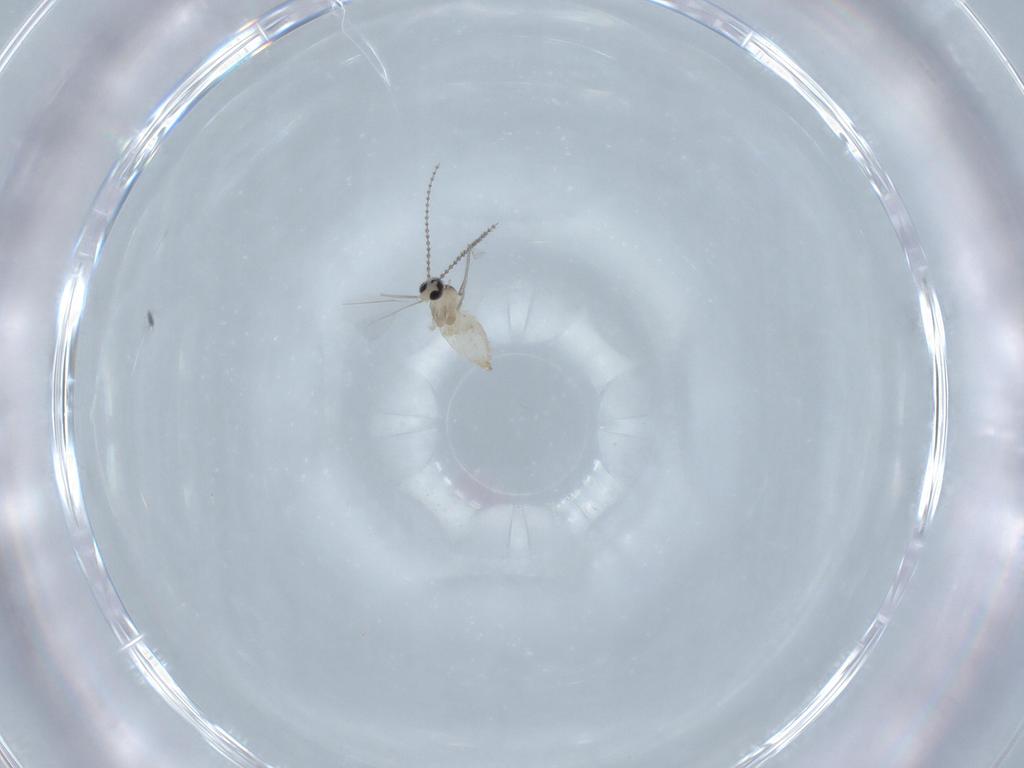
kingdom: Animalia
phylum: Arthropoda
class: Insecta
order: Diptera
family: Cecidomyiidae
